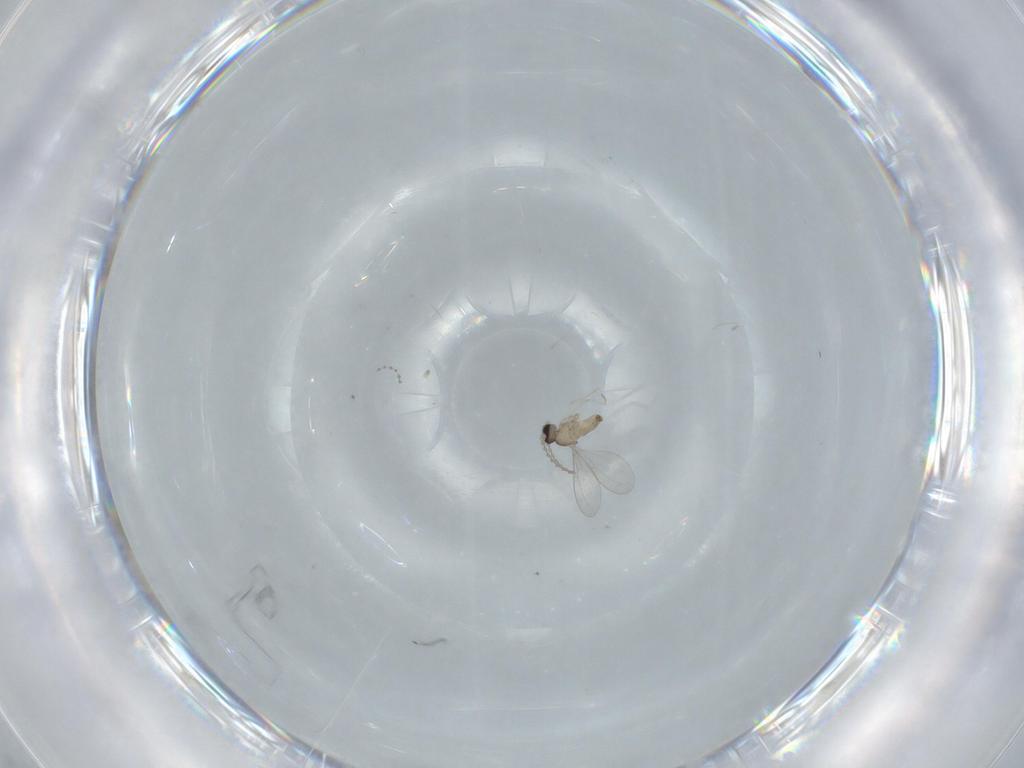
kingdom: Animalia
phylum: Arthropoda
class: Insecta
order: Diptera
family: Cecidomyiidae
